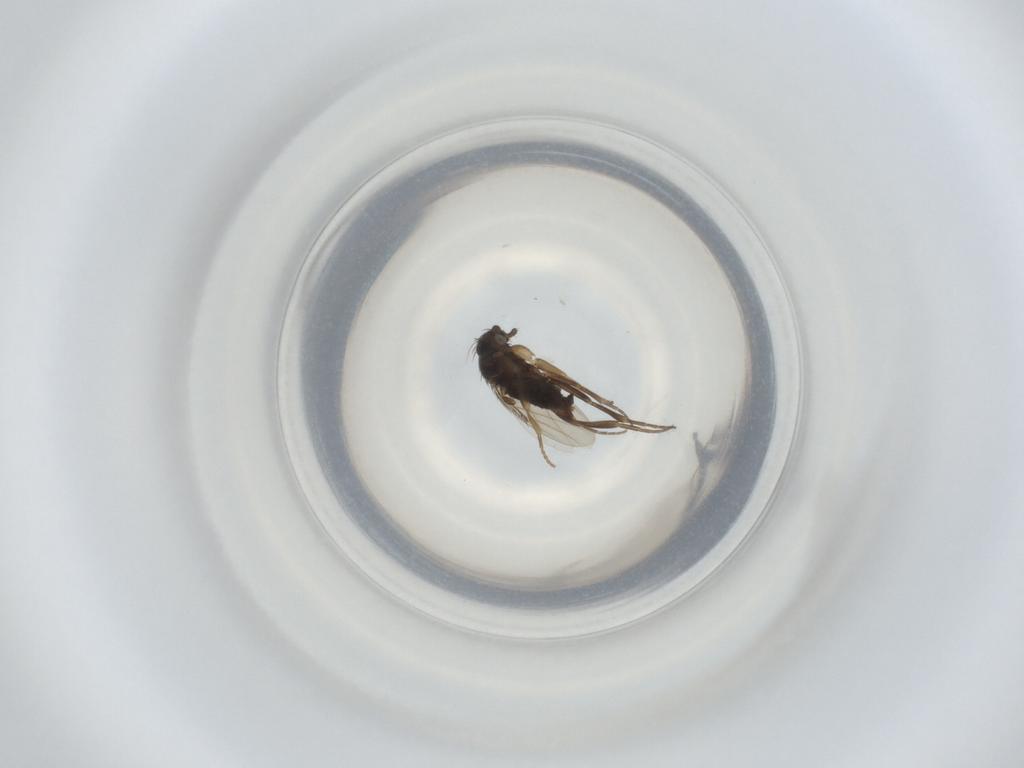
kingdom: Animalia
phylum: Arthropoda
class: Insecta
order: Diptera
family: Phoridae
